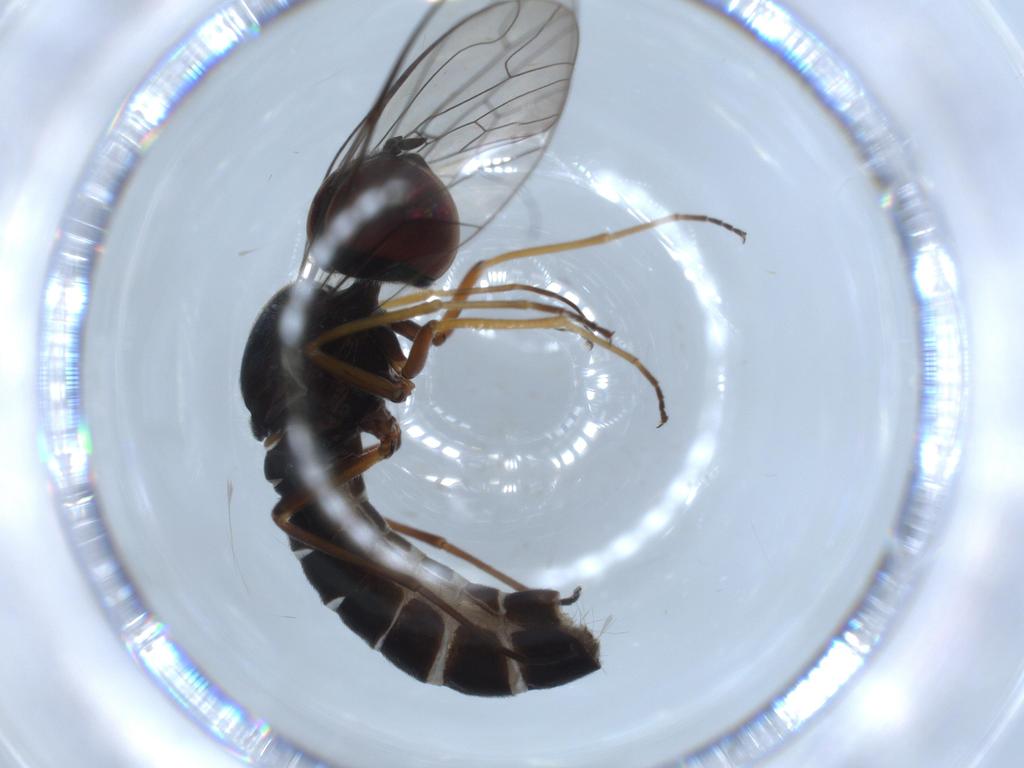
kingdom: Animalia
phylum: Arthropoda
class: Insecta
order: Diptera
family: Bombyliidae
